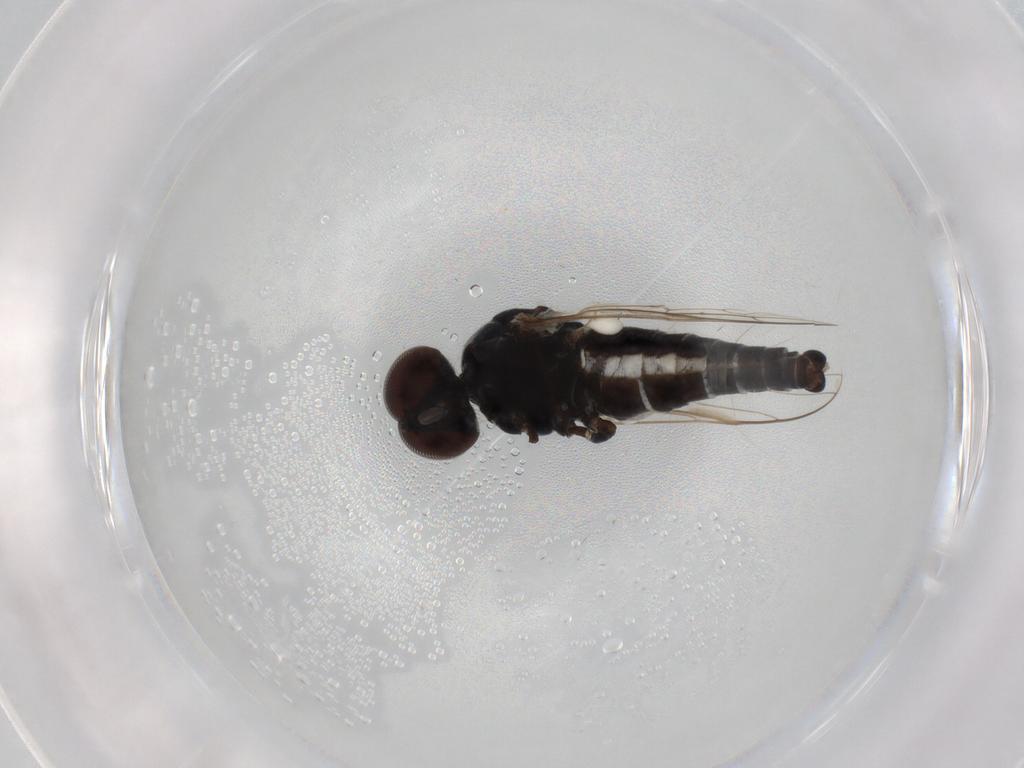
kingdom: Animalia
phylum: Arthropoda
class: Insecta
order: Diptera
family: Scenopinidae
